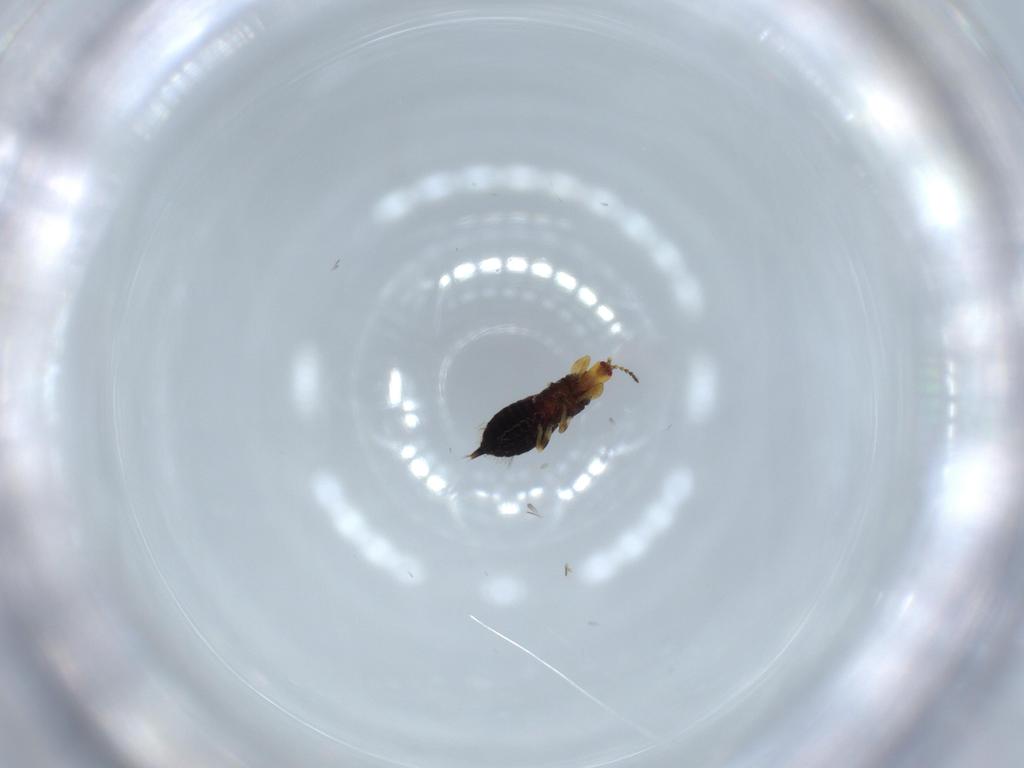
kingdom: Animalia
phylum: Arthropoda
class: Insecta
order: Thysanoptera
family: Phlaeothripidae
